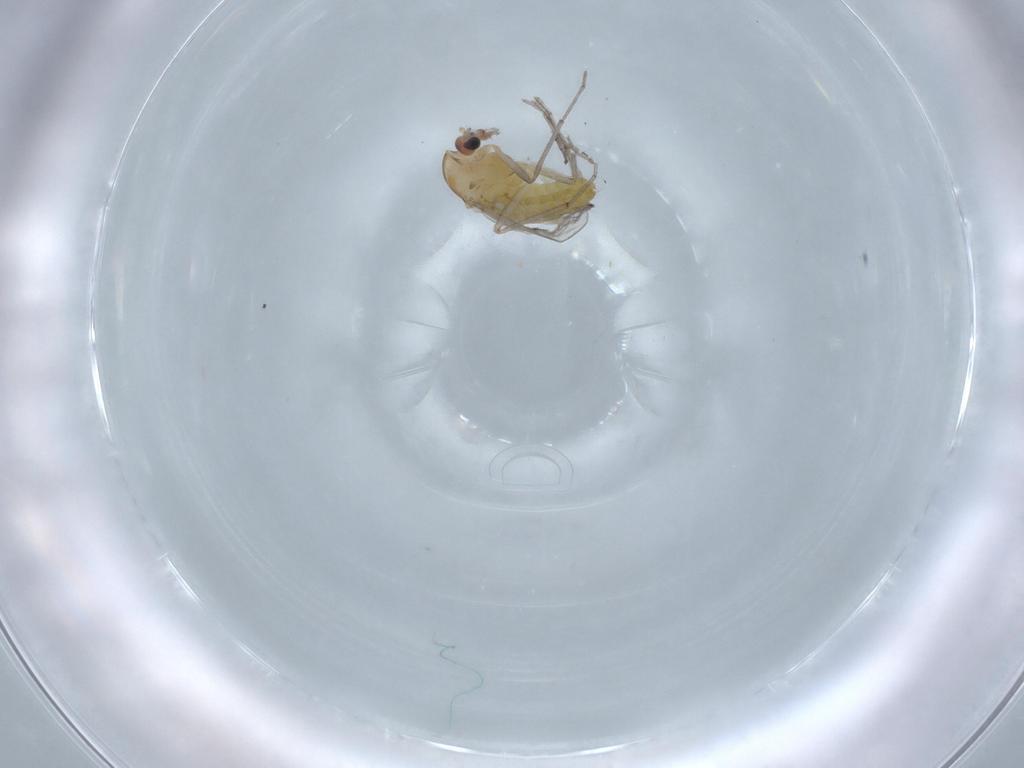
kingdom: Animalia
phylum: Arthropoda
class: Insecta
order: Diptera
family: Chironomidae
